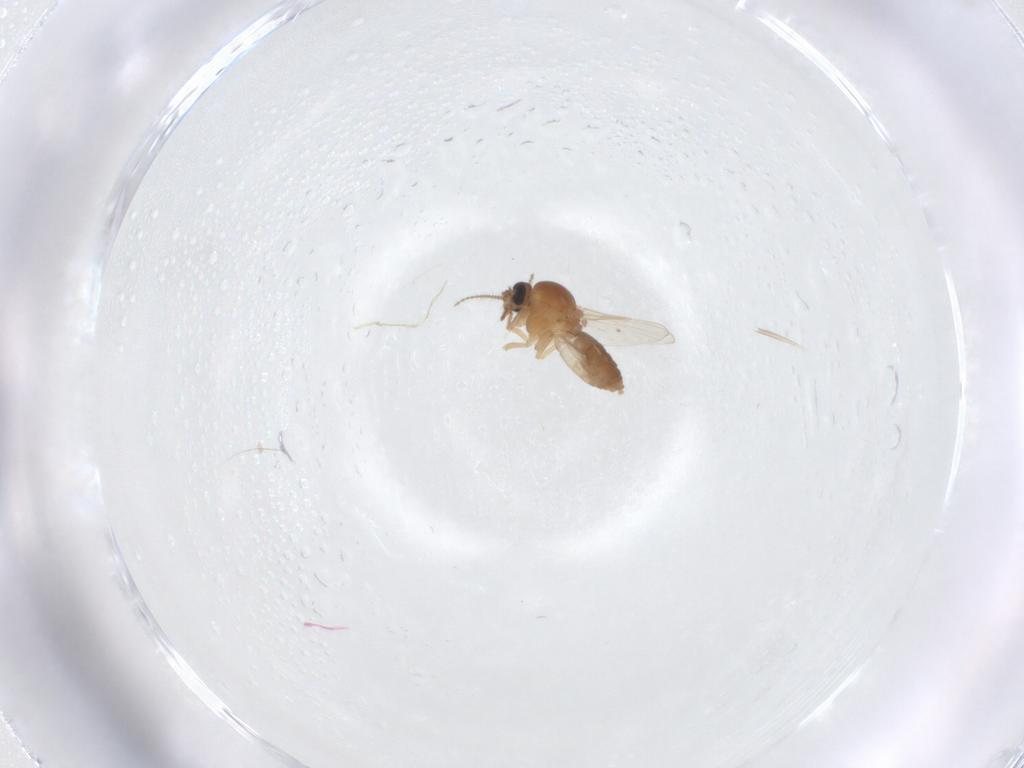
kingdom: Animalia
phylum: Arthropoda
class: Insecta
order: Diptera
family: Ceratopogonidae
